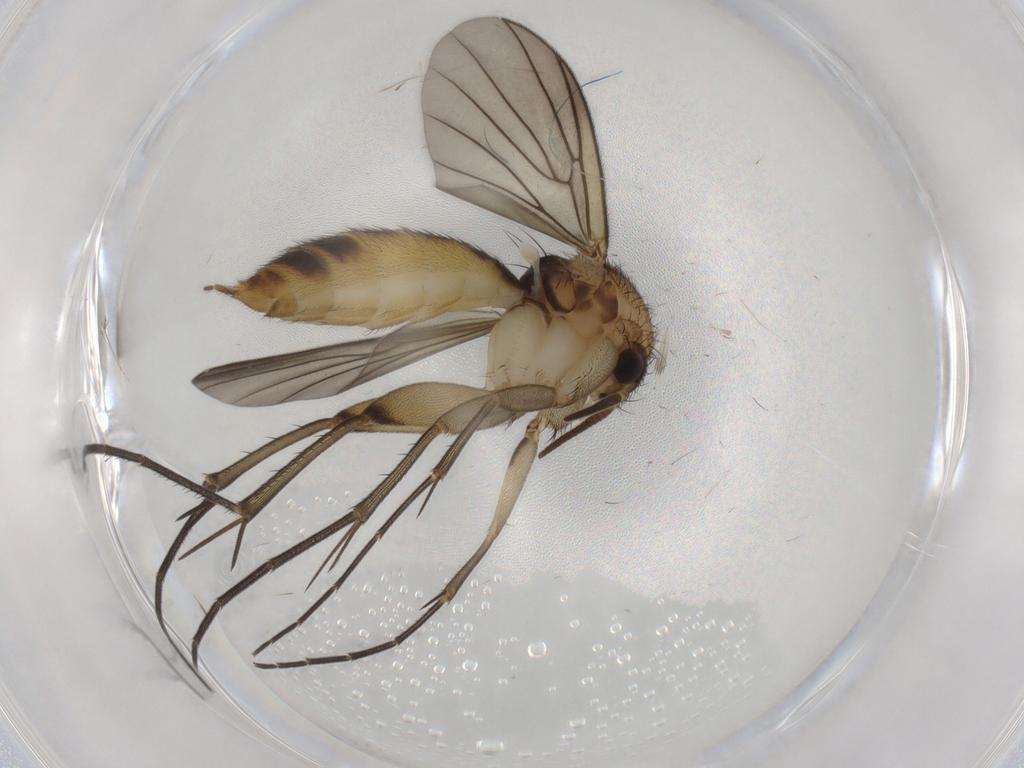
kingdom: Animalia
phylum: Arthropoda
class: Insecta
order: Diptera
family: Mycetophilidae
